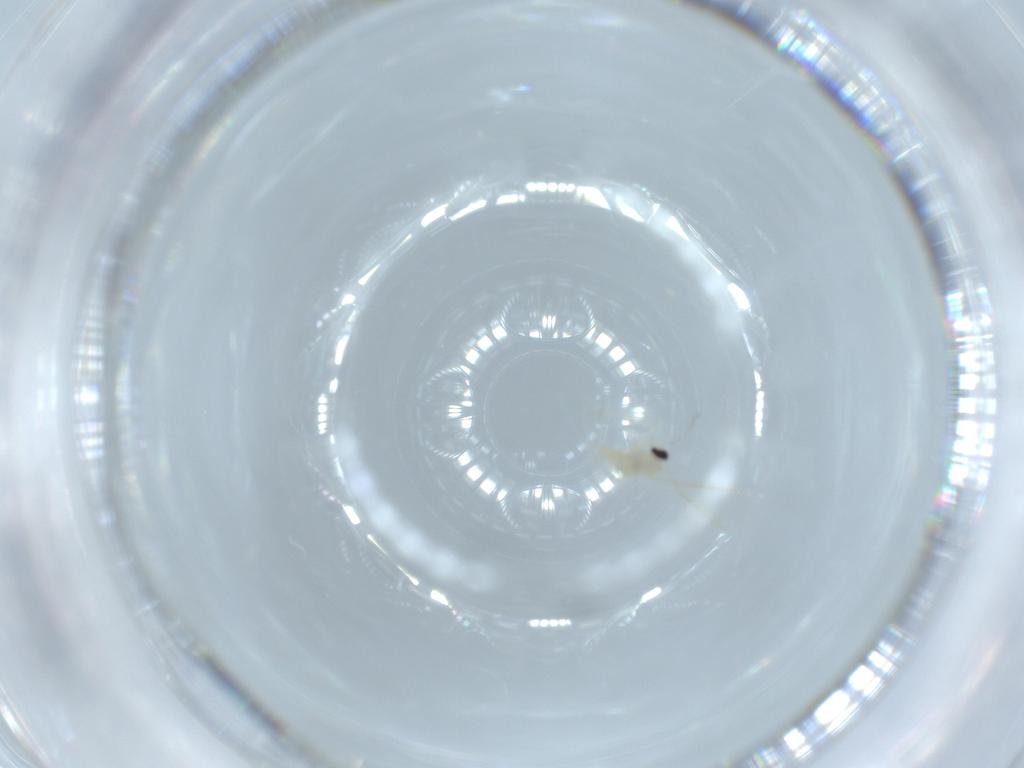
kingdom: Animalia
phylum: Arthropoda
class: Insecta
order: Diptera
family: Cecidomyiidae
